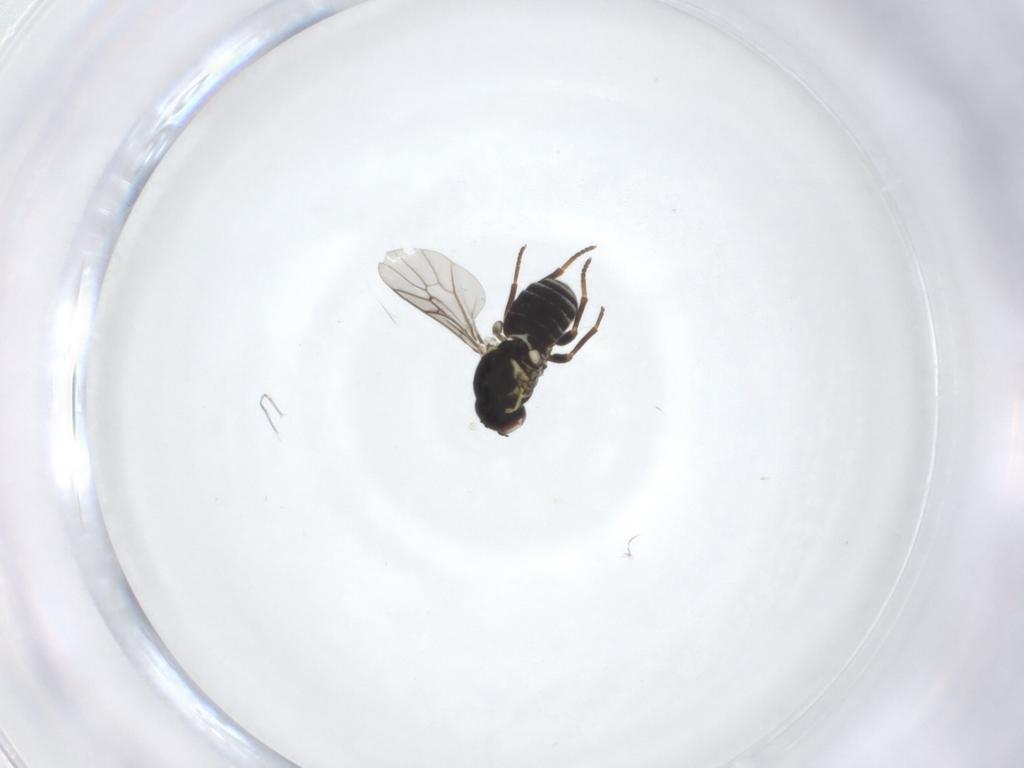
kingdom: Animalia
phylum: Arthropoda
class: Insecta
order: Diptera
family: Bombyliidae
